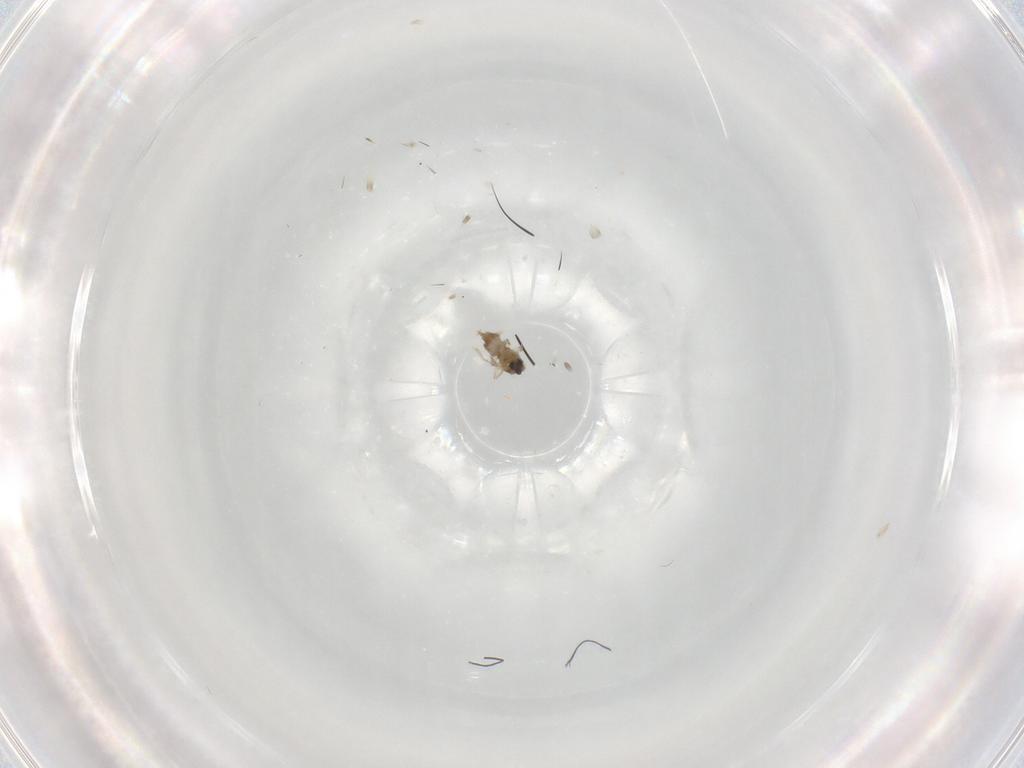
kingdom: Animalia
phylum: Arthropoda
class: Insecta
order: Diptera
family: Cecidomyiidae
